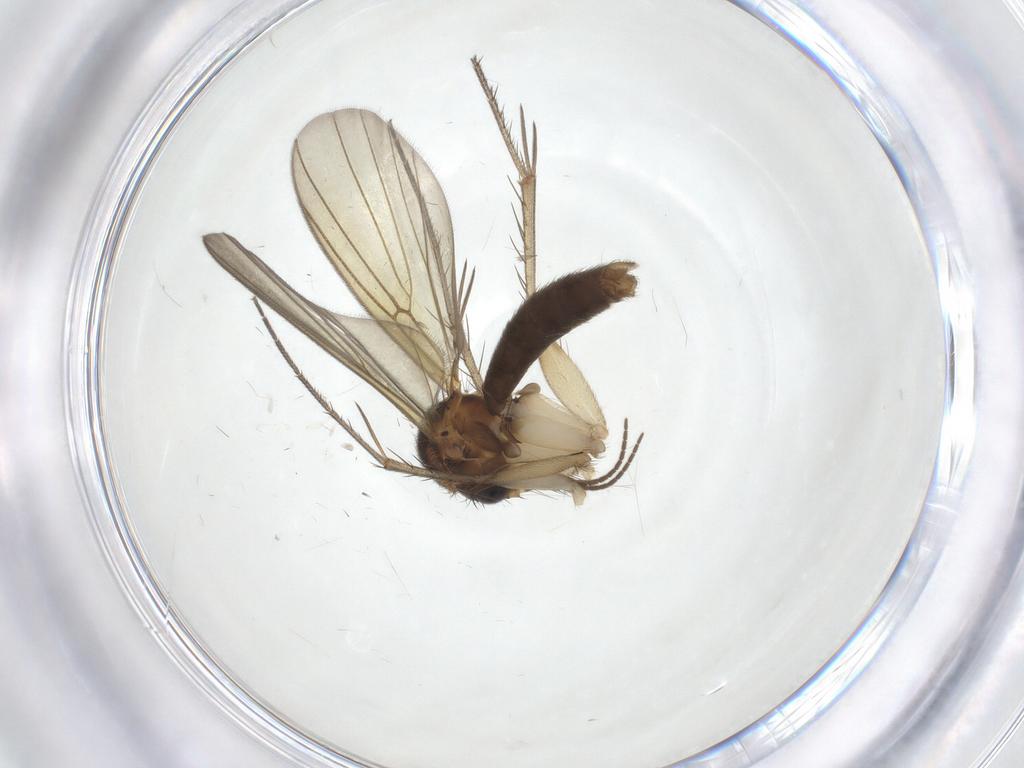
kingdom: Animalia
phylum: Arthropoda
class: Insecta
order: Diptera
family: Mycetophilidae
